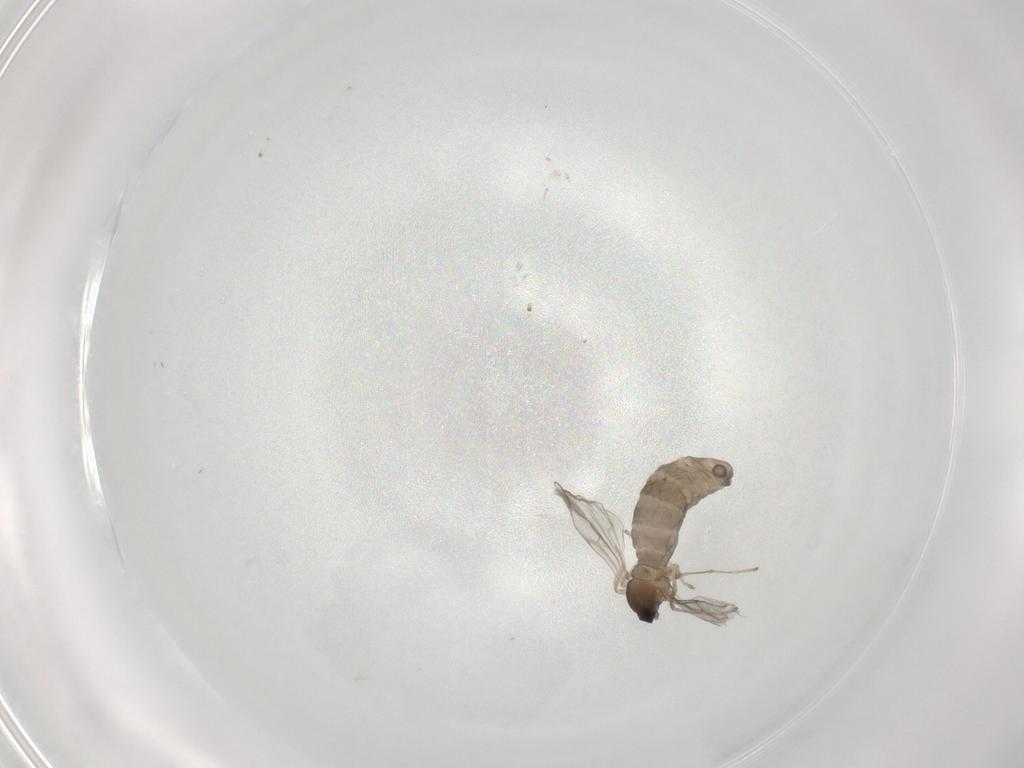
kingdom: Animalia
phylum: Arthropoda
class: Insecta
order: Diptera
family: Cecidomyiidae
